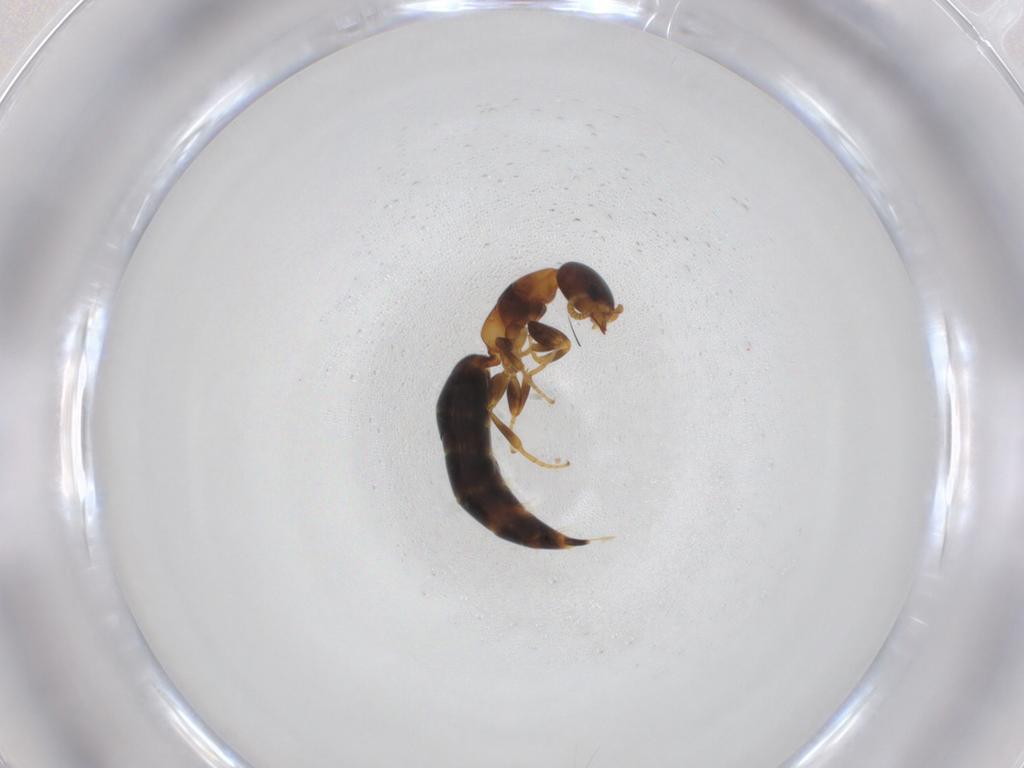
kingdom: Animalia
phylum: Arthropoda
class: Insecta
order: Hymenoptera
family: Bethylidae
